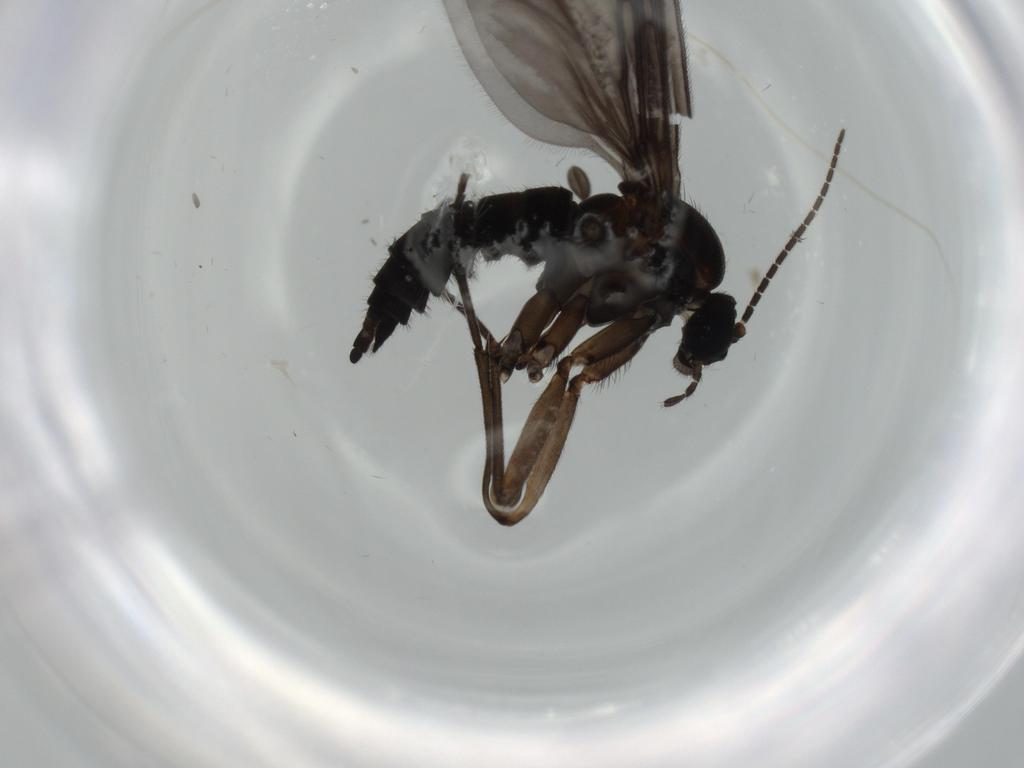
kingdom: Animalia
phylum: Arthropoda
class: Insecta
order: Diptera
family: Sciaridae
